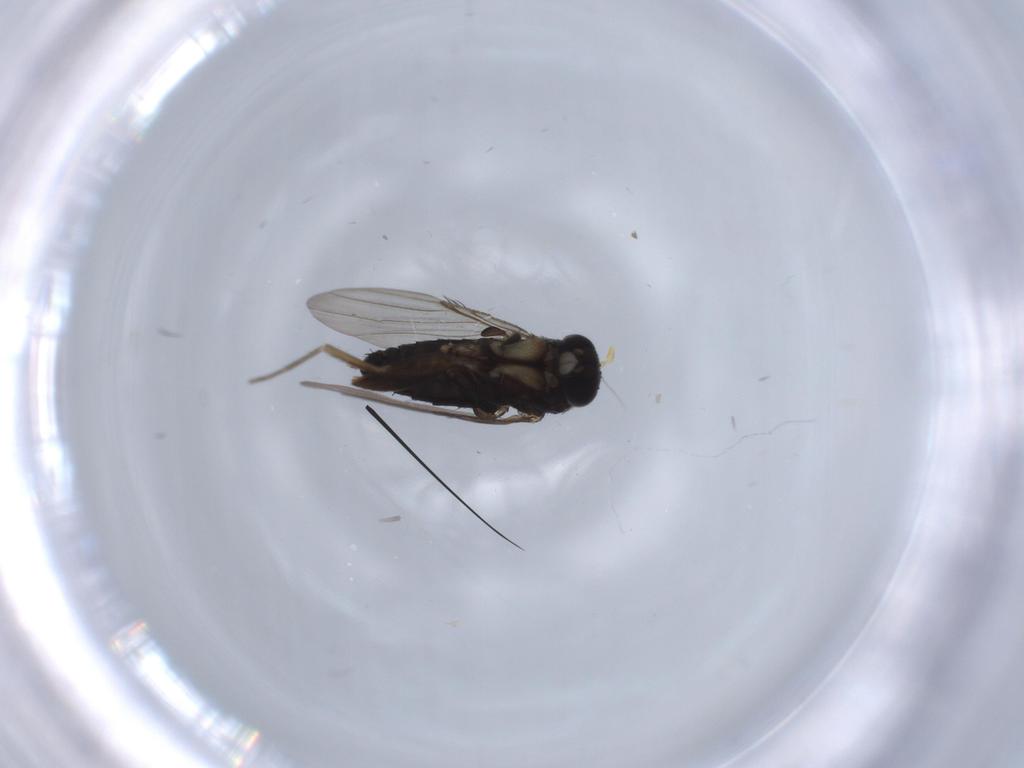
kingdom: Animalia
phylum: Arthropoda
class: Insecta
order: Diptera
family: Phoridae
